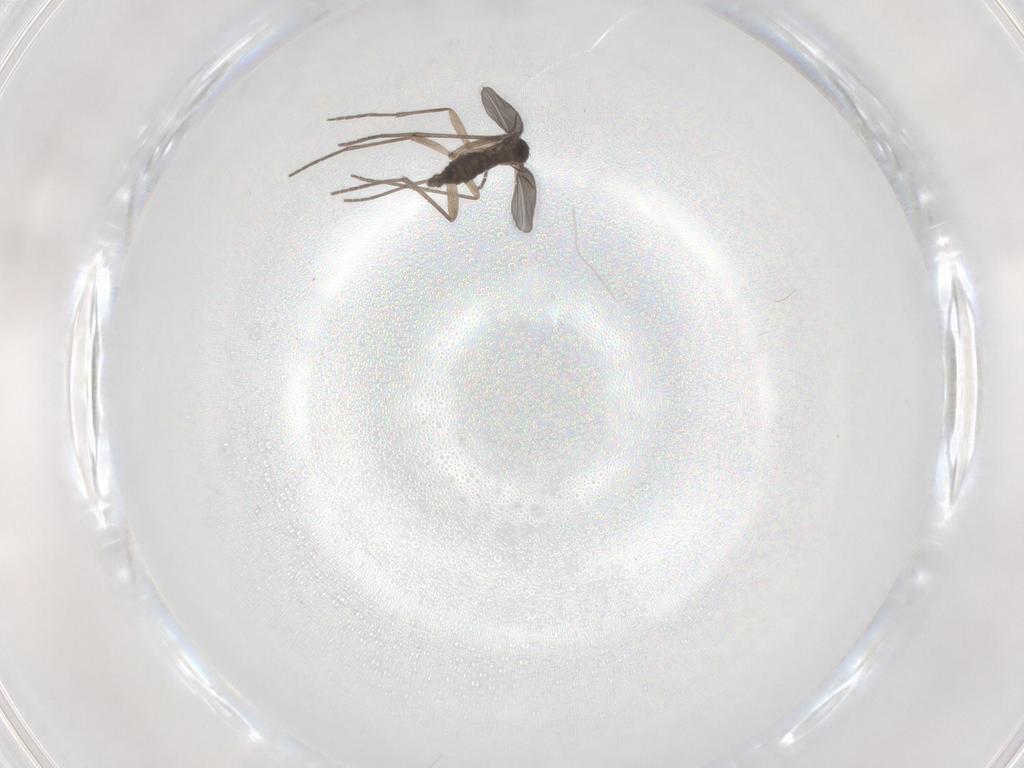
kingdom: Animalia
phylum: Arthropoda
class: Insecta
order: Diptera
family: Sciaridae
